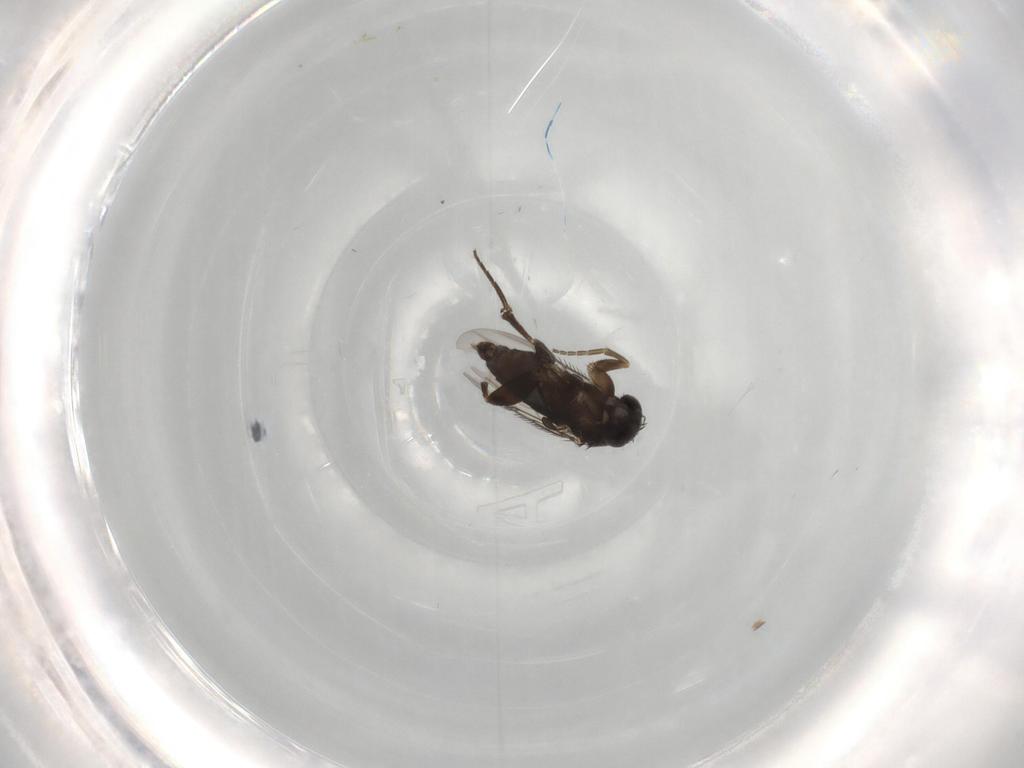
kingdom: Animalia
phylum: Arthropoda
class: Insecta
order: Diptera
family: Phoridae
